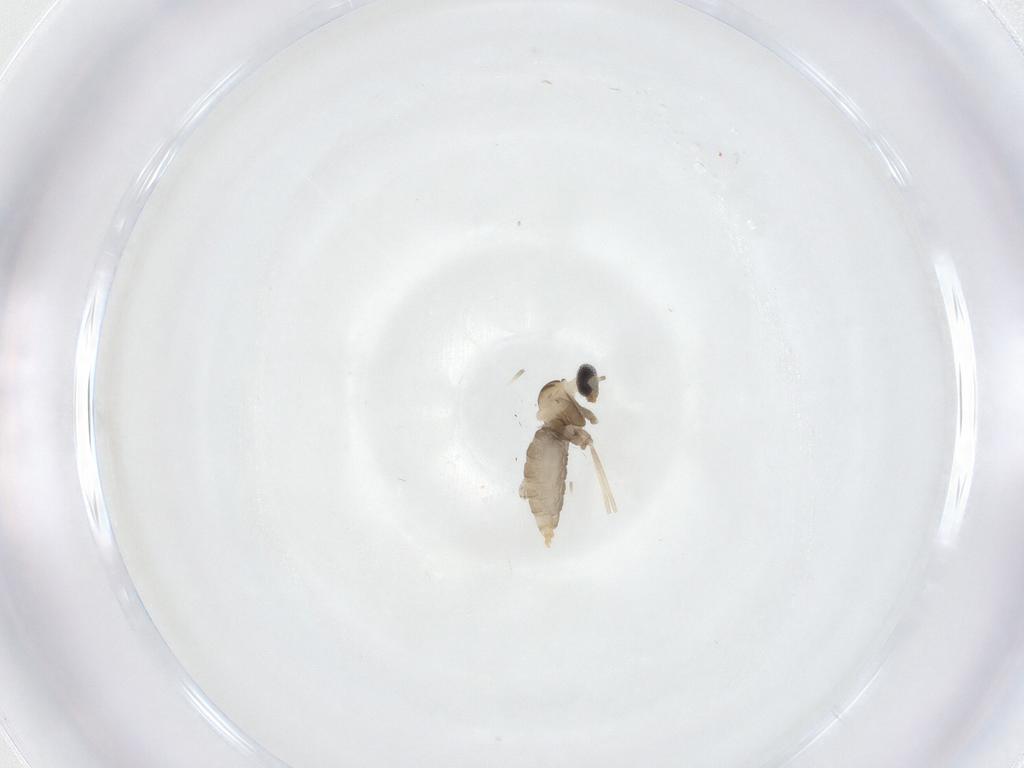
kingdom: Animalia
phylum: Arthropoda
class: Insecta
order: Diptera
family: Cecidomyiidae
